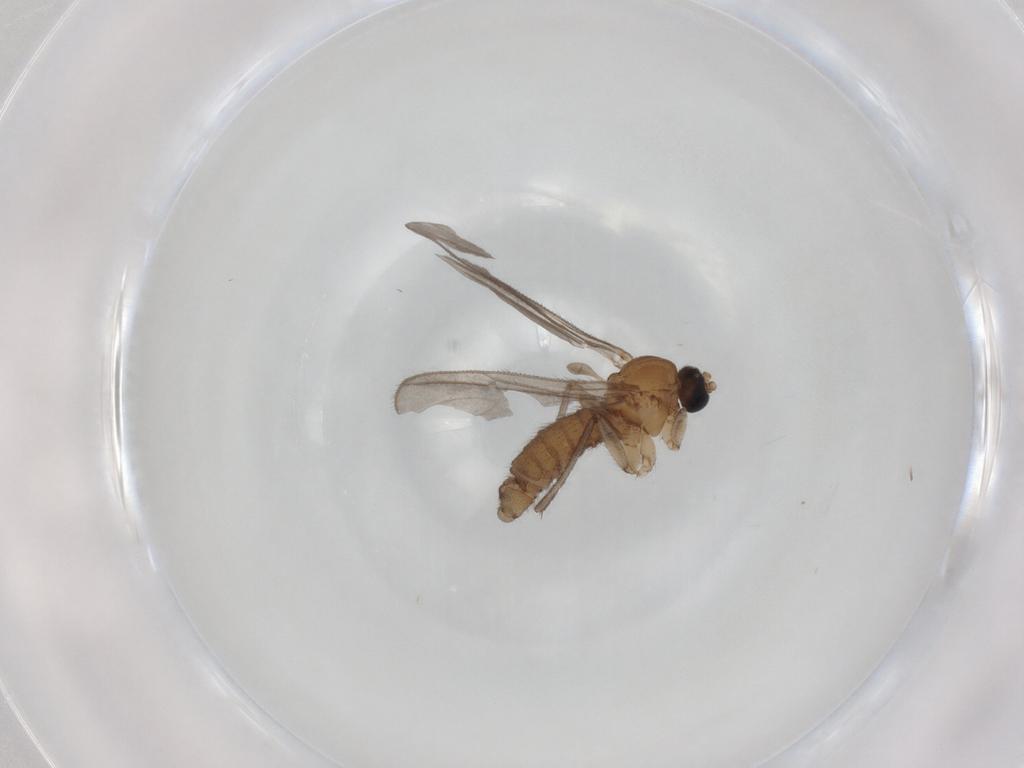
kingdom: Animalia
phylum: Arthropoda
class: Insecta
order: Diptera
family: Sciaridae
